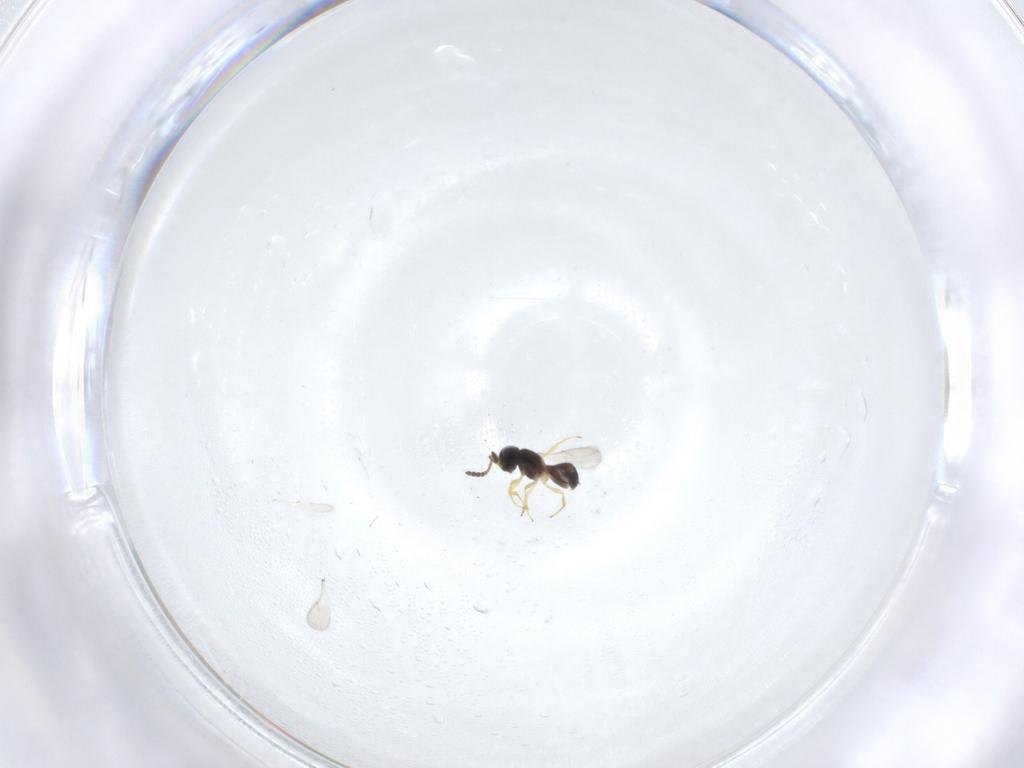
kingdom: Animalia
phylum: Arthropoda
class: Insecta
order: Hymenoptera
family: Scelionidae
